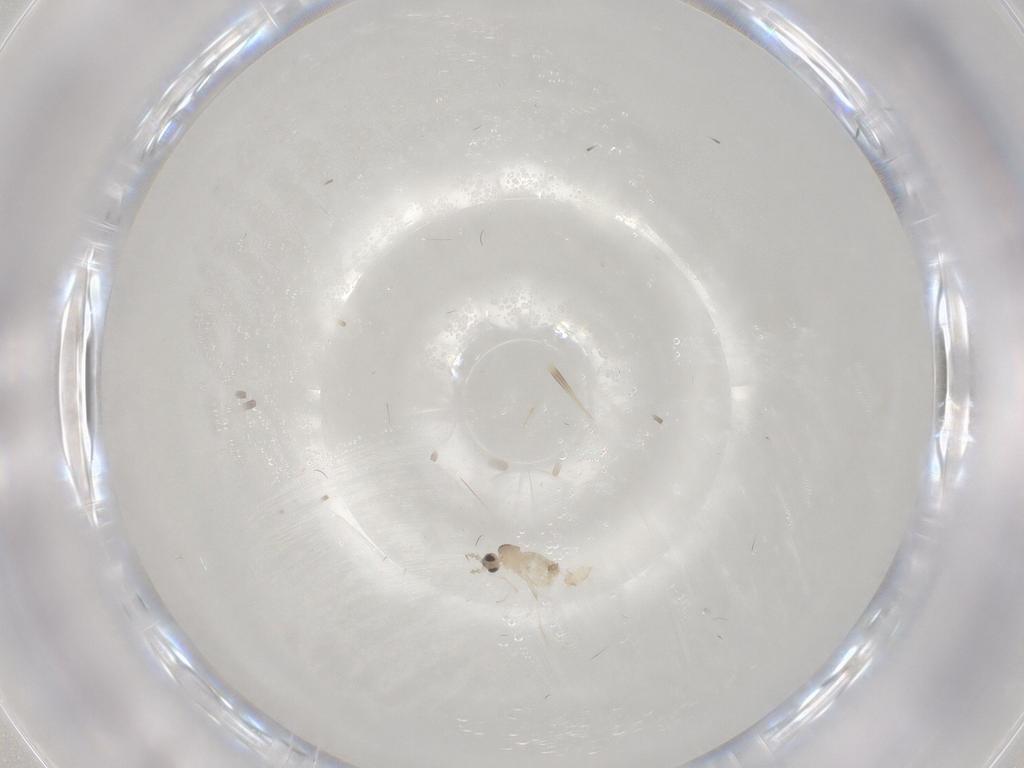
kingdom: Animalia
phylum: Arthropoda
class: Insecta
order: Diptera
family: Cecidomyiidae
